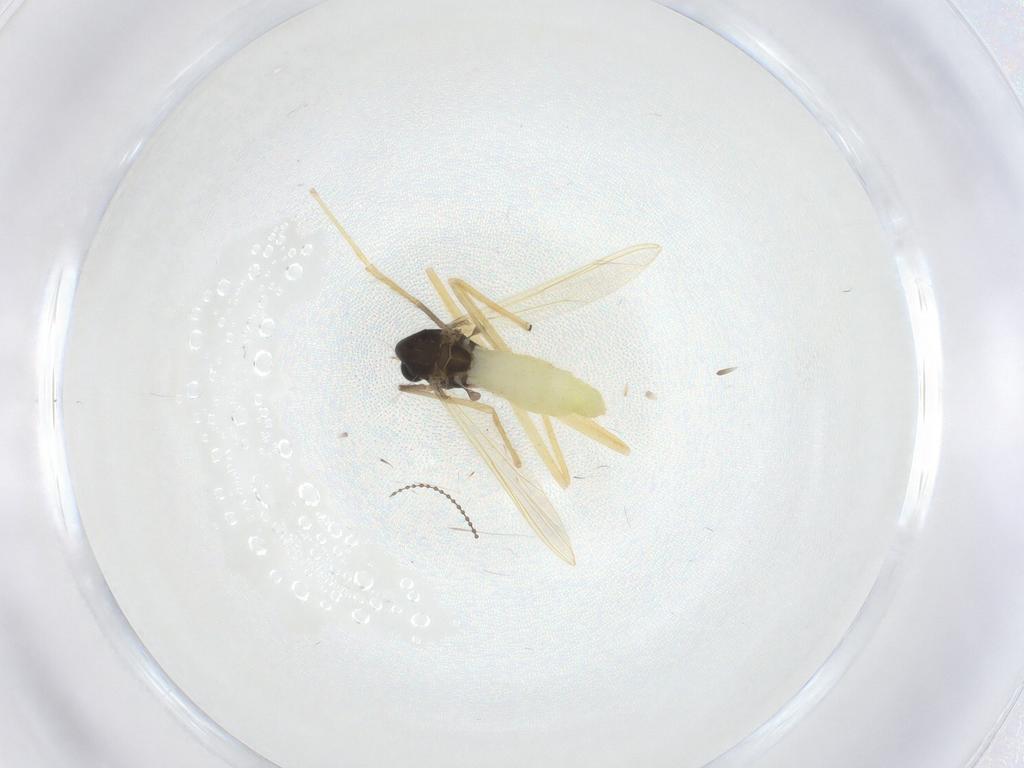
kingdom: Animalia
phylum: Arthropoda
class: Insecta
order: Diptera
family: Chironomidae
